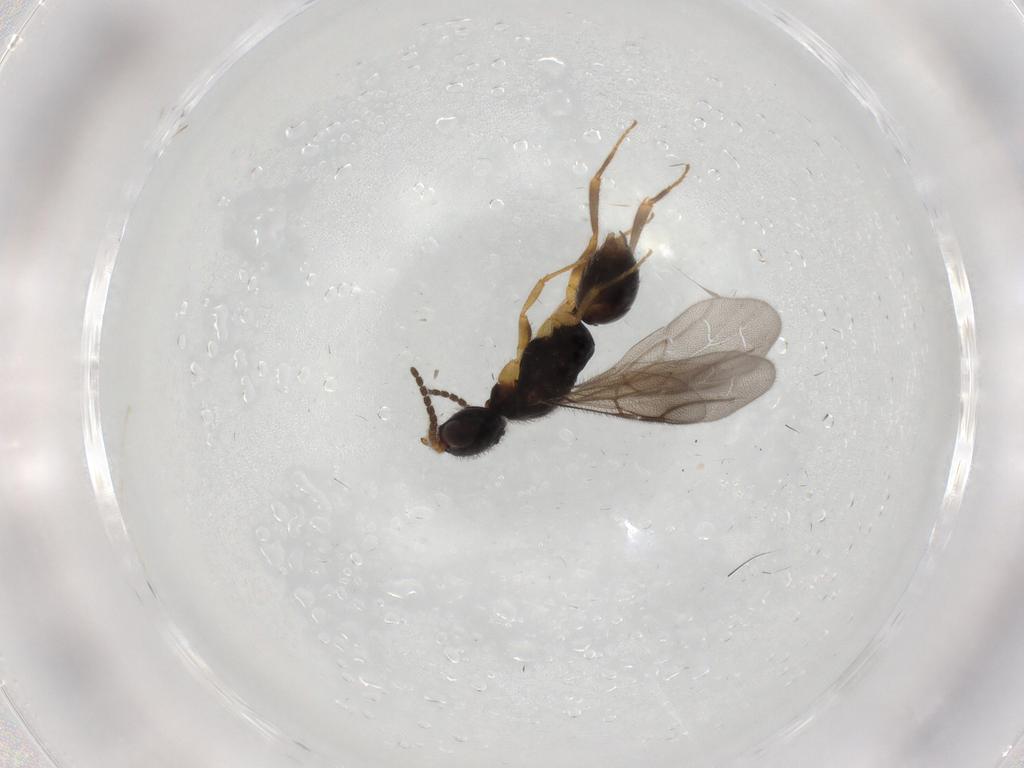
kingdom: Animalia
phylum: Arthropoda
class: Insecta
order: Hymenoptera
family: Bethylidae
